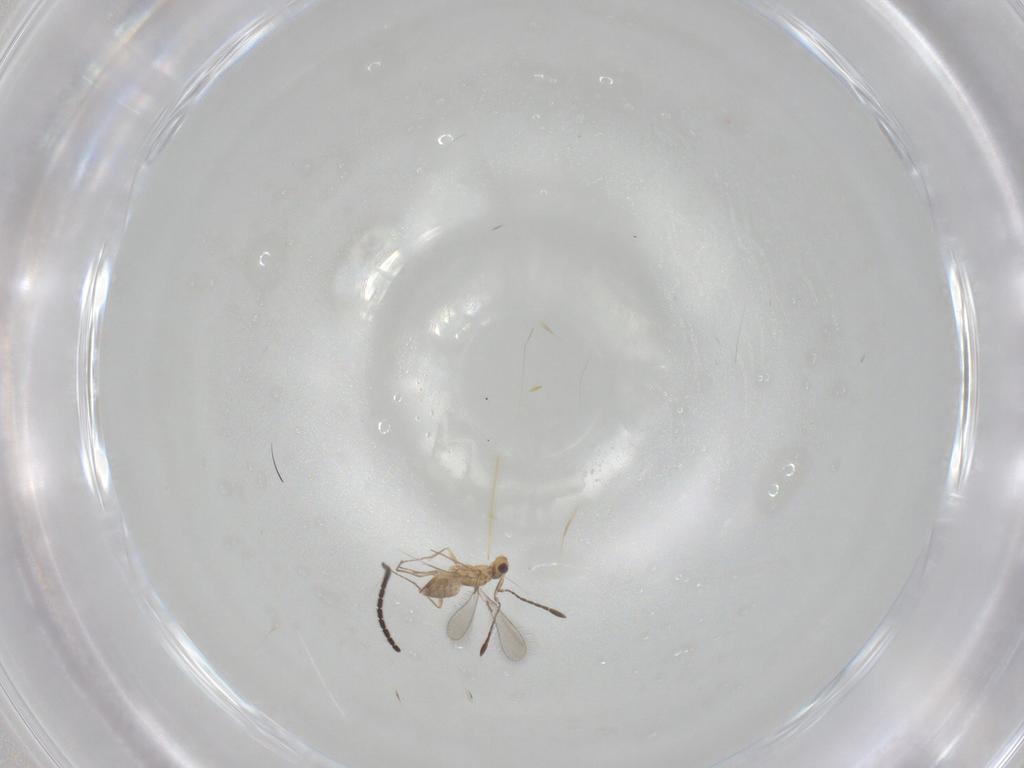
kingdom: Animalia
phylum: Arthropoda
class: Insecta
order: Hymenoptera
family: Mymaridae
